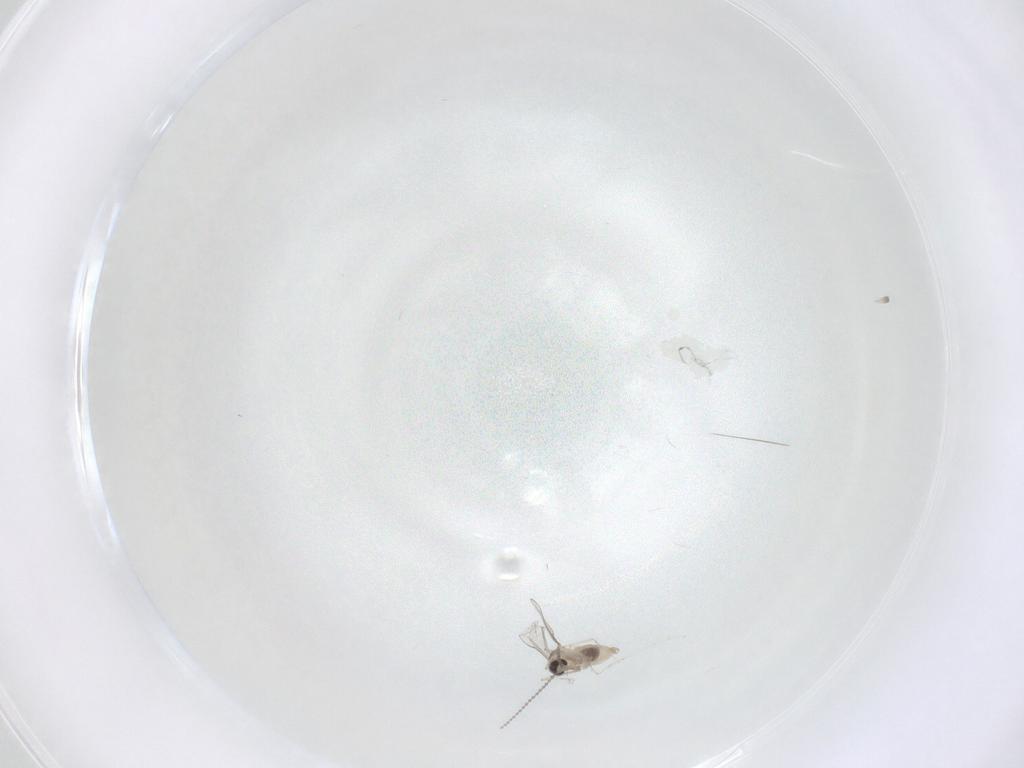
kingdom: Animalia
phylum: Arthropoda
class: Insecta
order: Diptera
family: Cecidomyiidae
